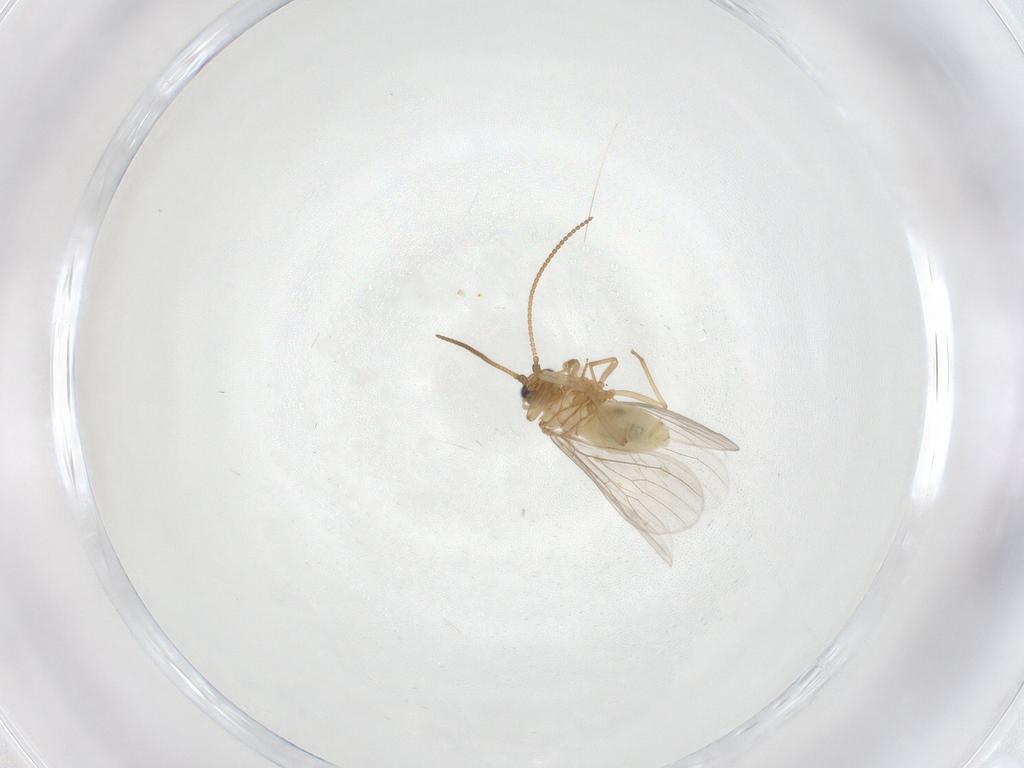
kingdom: Animalia
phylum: Arthropoda
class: Insecta
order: Neuroptera
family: Coniopterygidae
